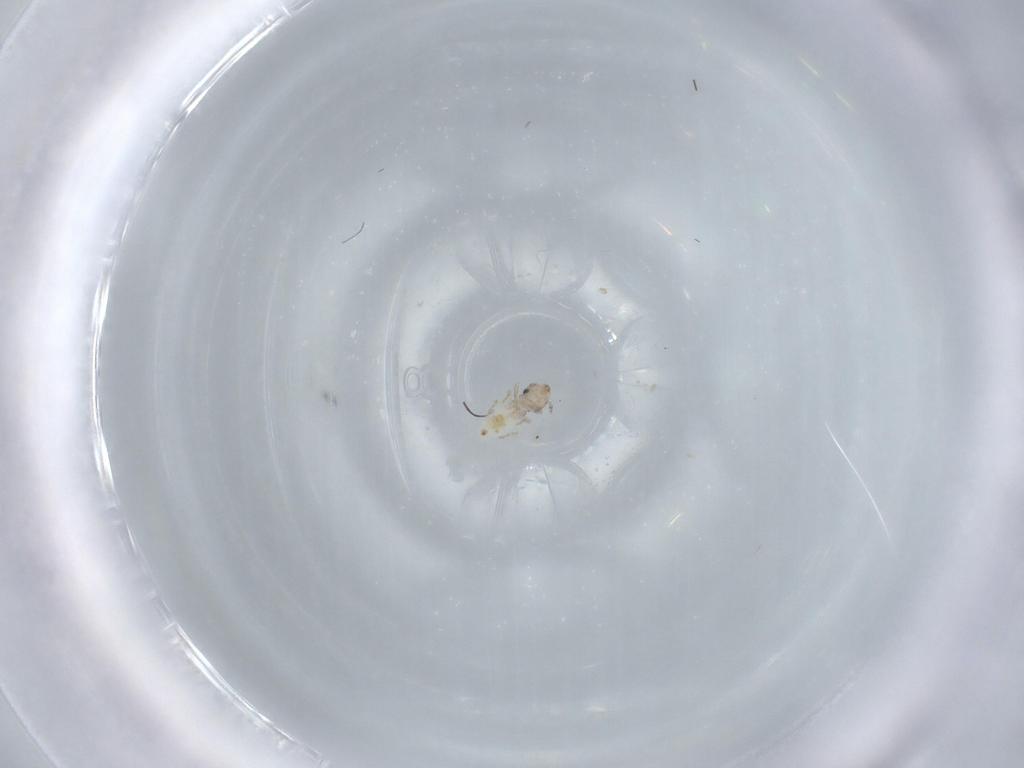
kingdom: Animalia
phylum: Arthropoda
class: Insecta
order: Psocodea
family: Lepidopsocidae
